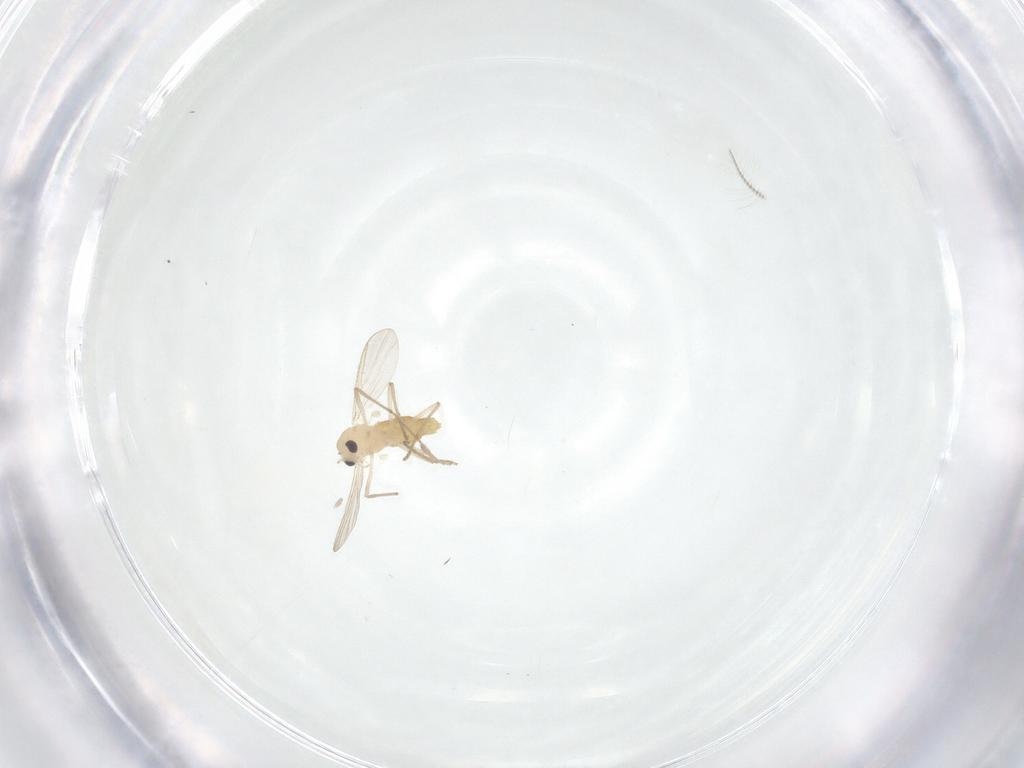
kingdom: Animalia
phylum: Arthropoda
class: Insecta
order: Diptera
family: Chironomidae
